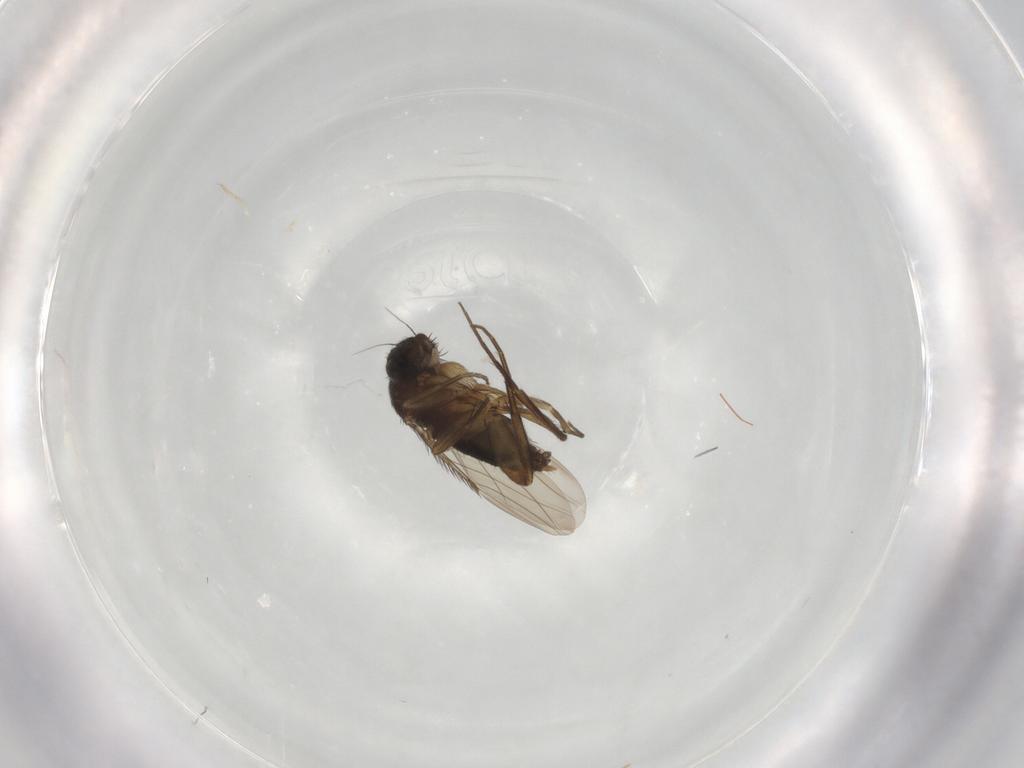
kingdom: Animalia
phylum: Arthropoda
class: Insecta
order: Diptera
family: Phoridae
